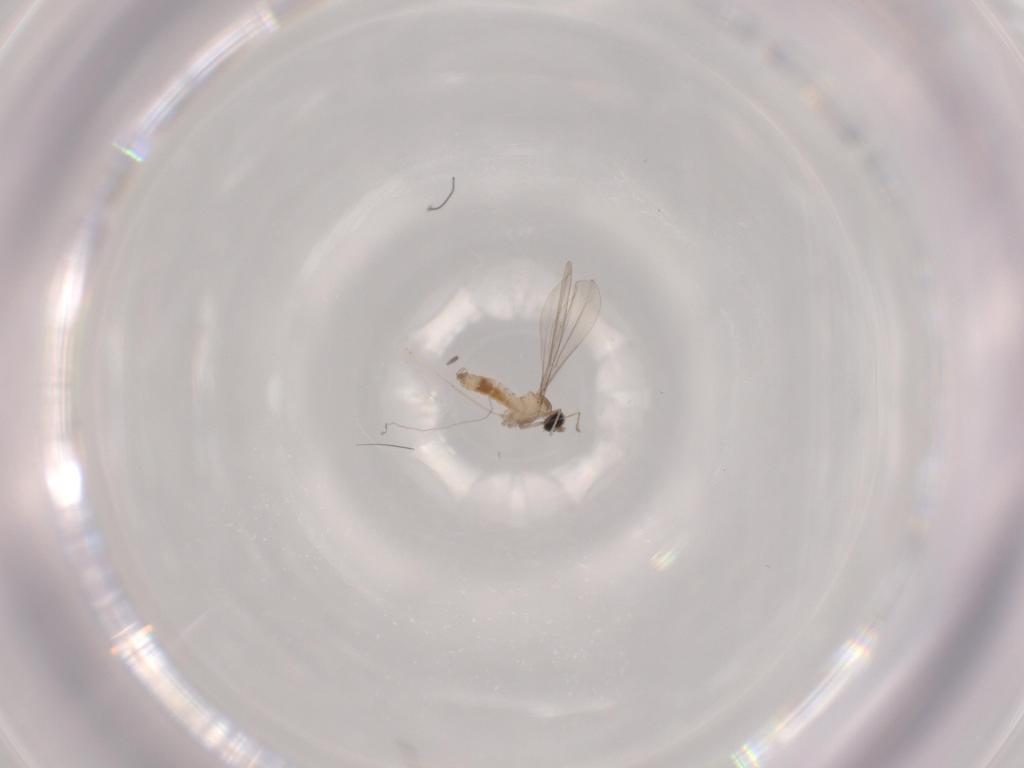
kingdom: Animalia
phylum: Arthropoda
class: Insecta
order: Diptera
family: Cecidomyiidae
